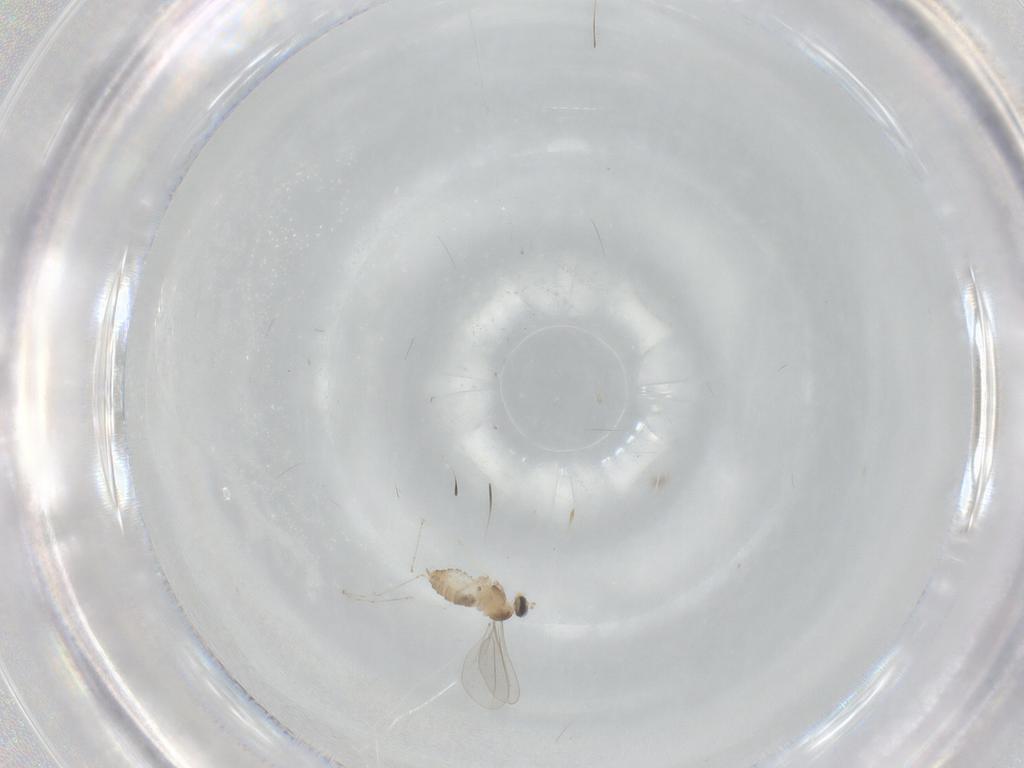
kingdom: Animalia
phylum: Arthropoda
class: Insecta
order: Diptera
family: Cecidomyiidae
